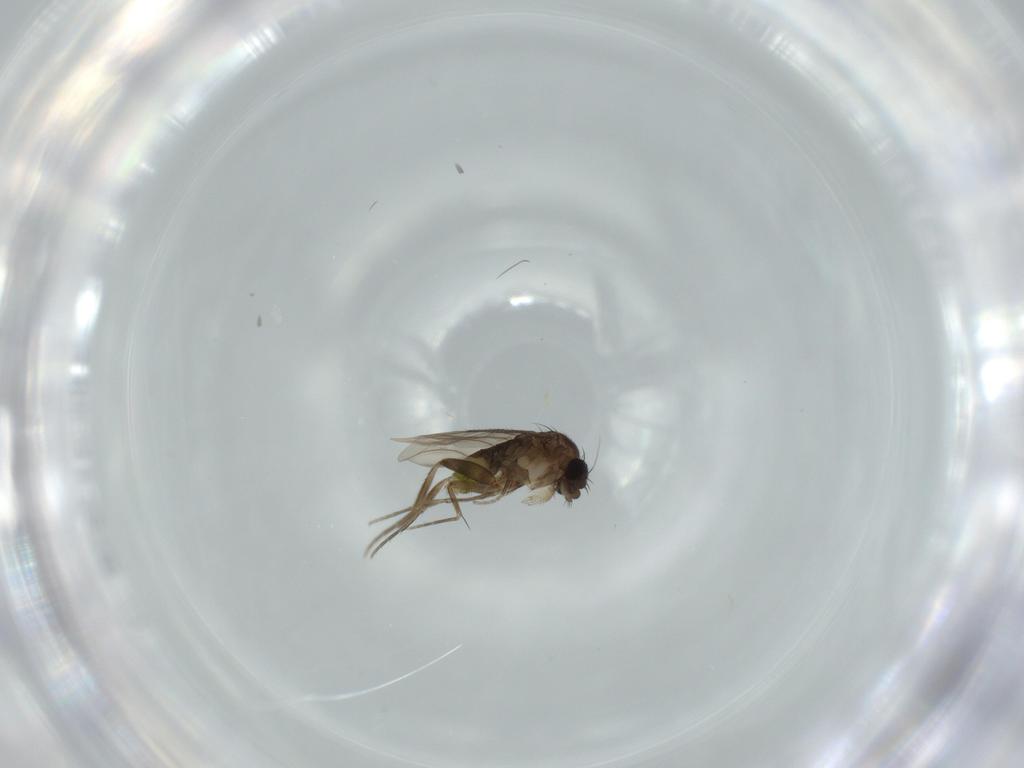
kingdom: Animalia
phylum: Arthropoda
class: Insecta
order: Diptera
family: Phoridae
